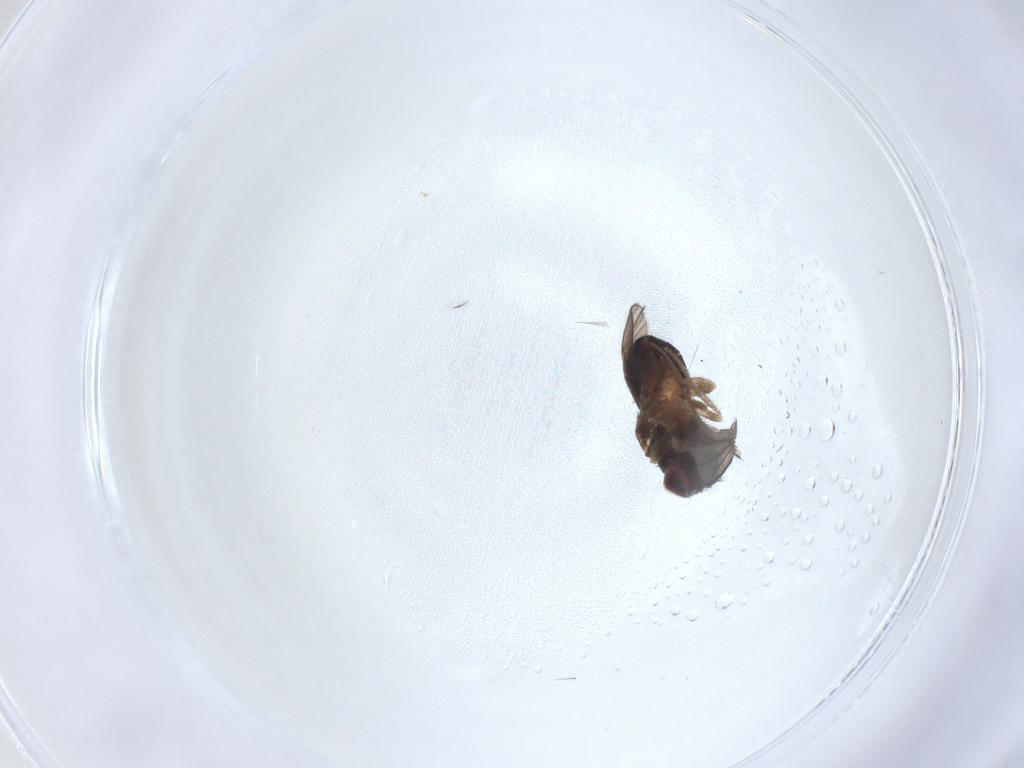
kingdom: Animalia
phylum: Arthropoda
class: Insecta
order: Diptera
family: Drosophilidae
